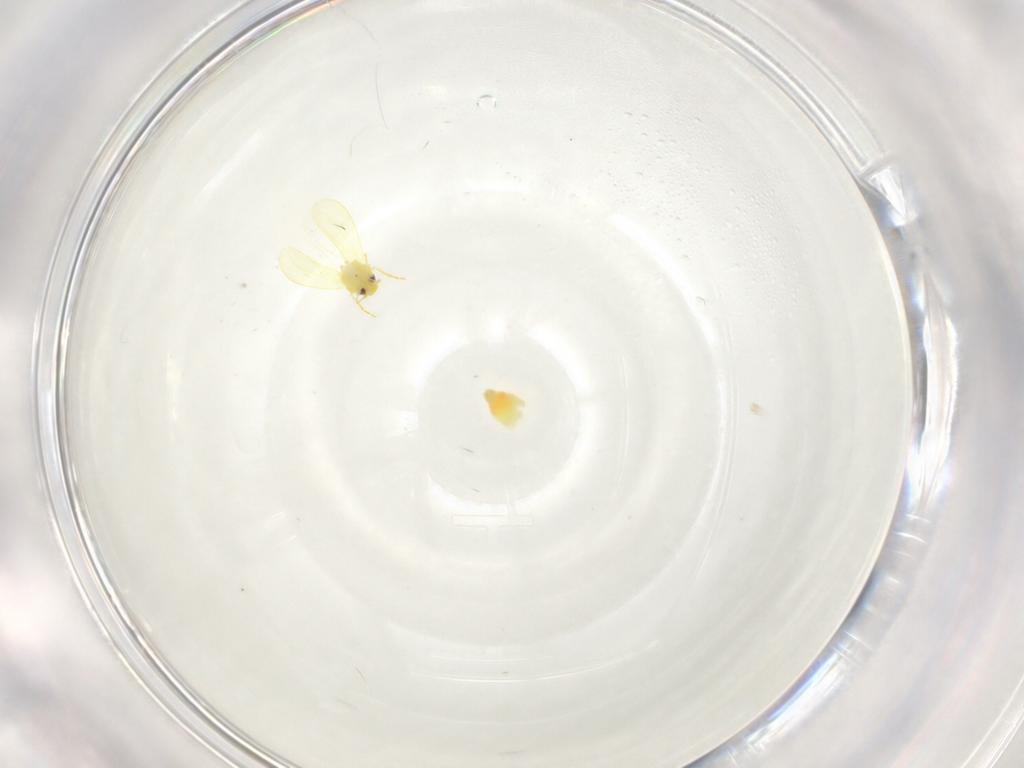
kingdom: Animalia
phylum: Arthropoda
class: Insecta
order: Hemiptera
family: Aleyrodidae
